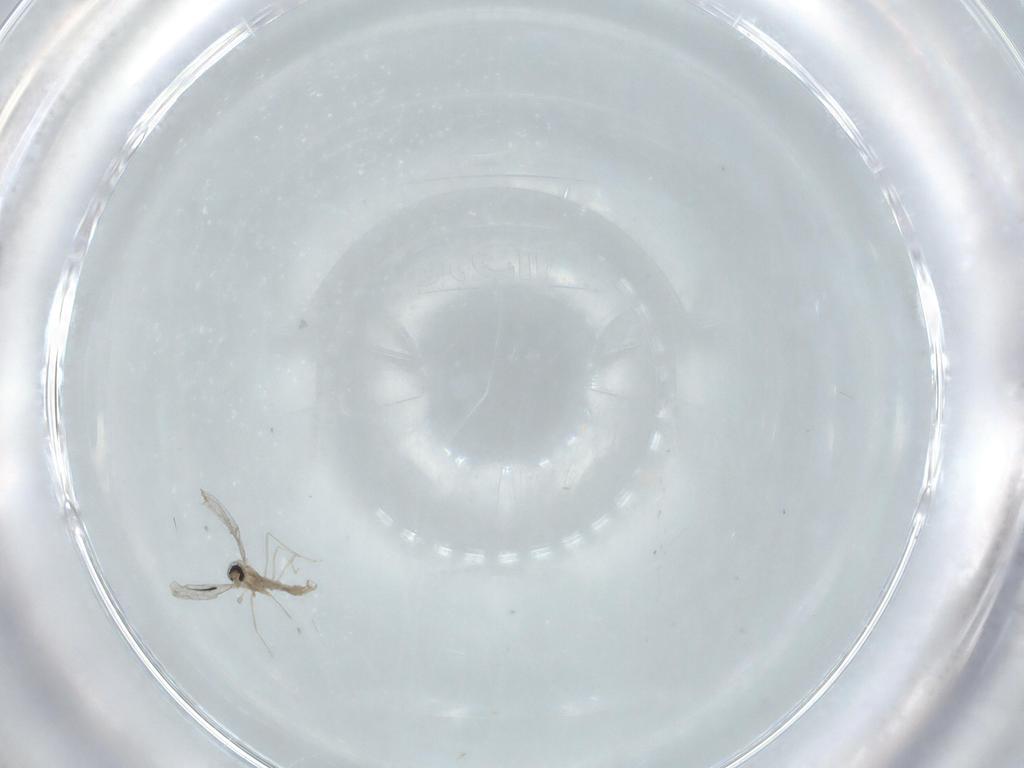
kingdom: Animalia
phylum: Arthropoda
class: Insecta
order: Diptera
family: Cecidomyiidae
